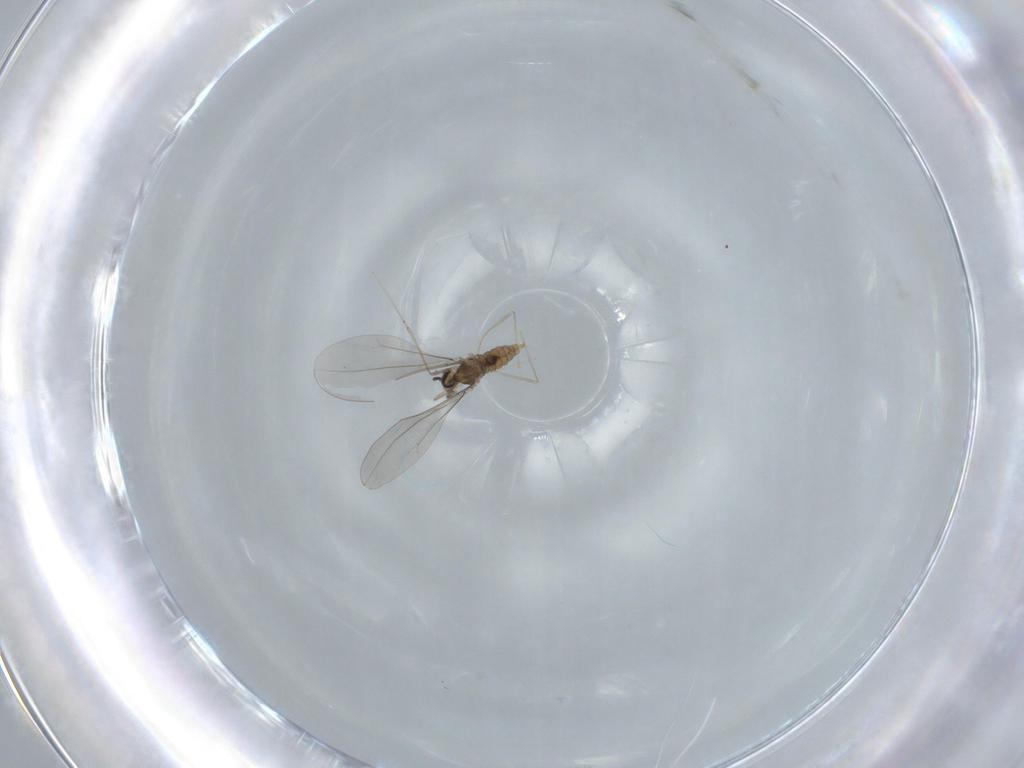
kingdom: Animalia
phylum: Arthropoda
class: Insecta
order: Diptera
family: Cecidomyiidae
